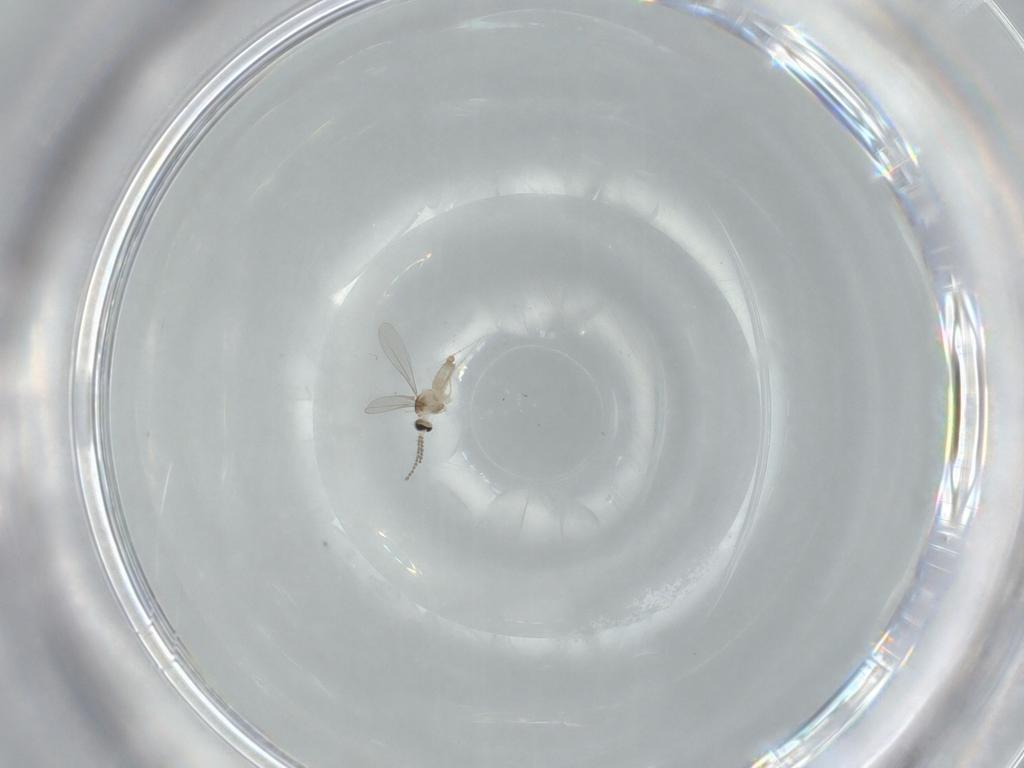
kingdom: Animalia
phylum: Arthropoda
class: Insecta
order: Diptera
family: Cecidomyiidae
